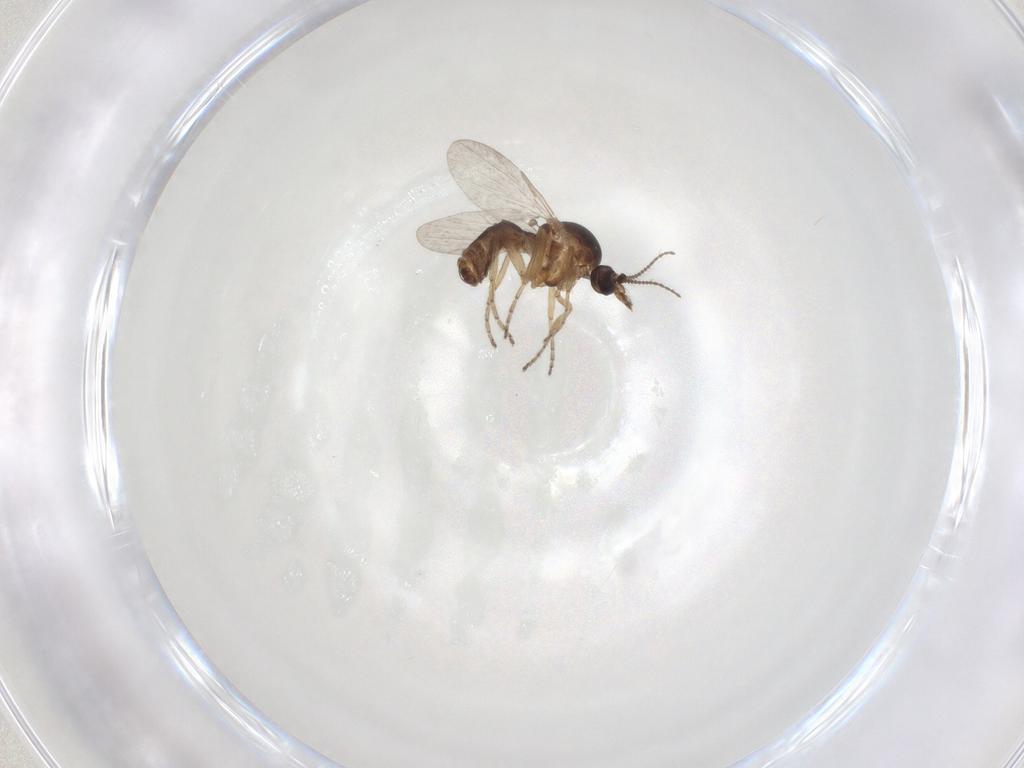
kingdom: Animalia
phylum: Arthropoda
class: Insecta
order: Diptera
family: Ceratopogonidae
